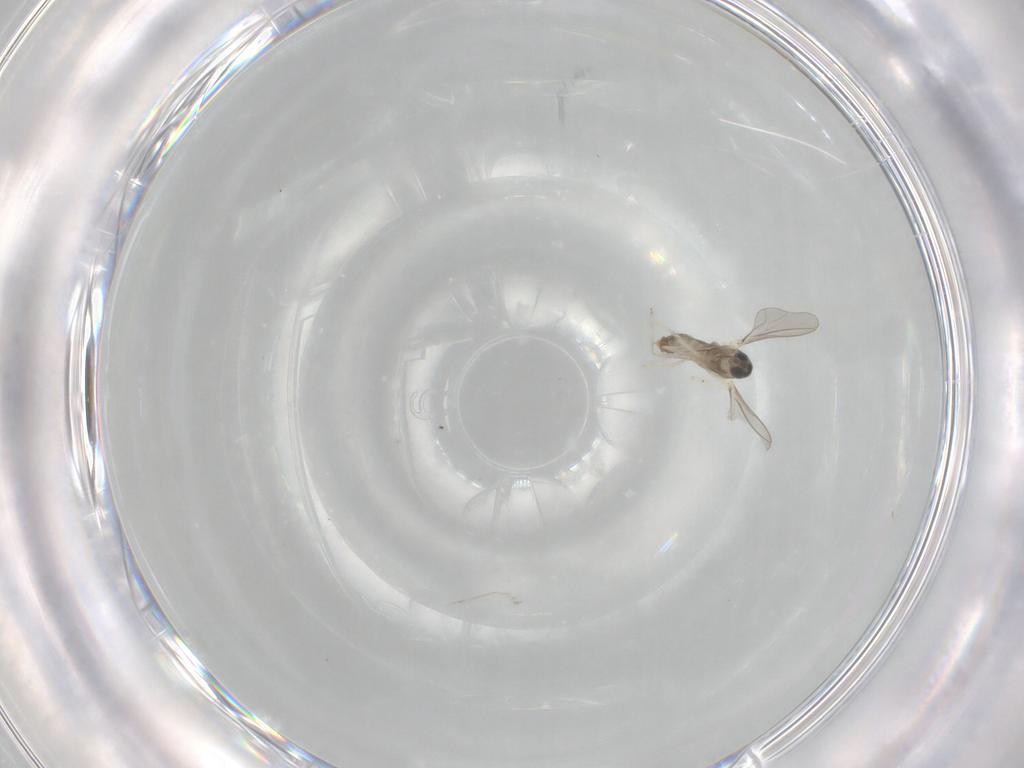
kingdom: Animalia
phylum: Arthropoda
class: Insecta
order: Diptera
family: Cecidomyiidae
